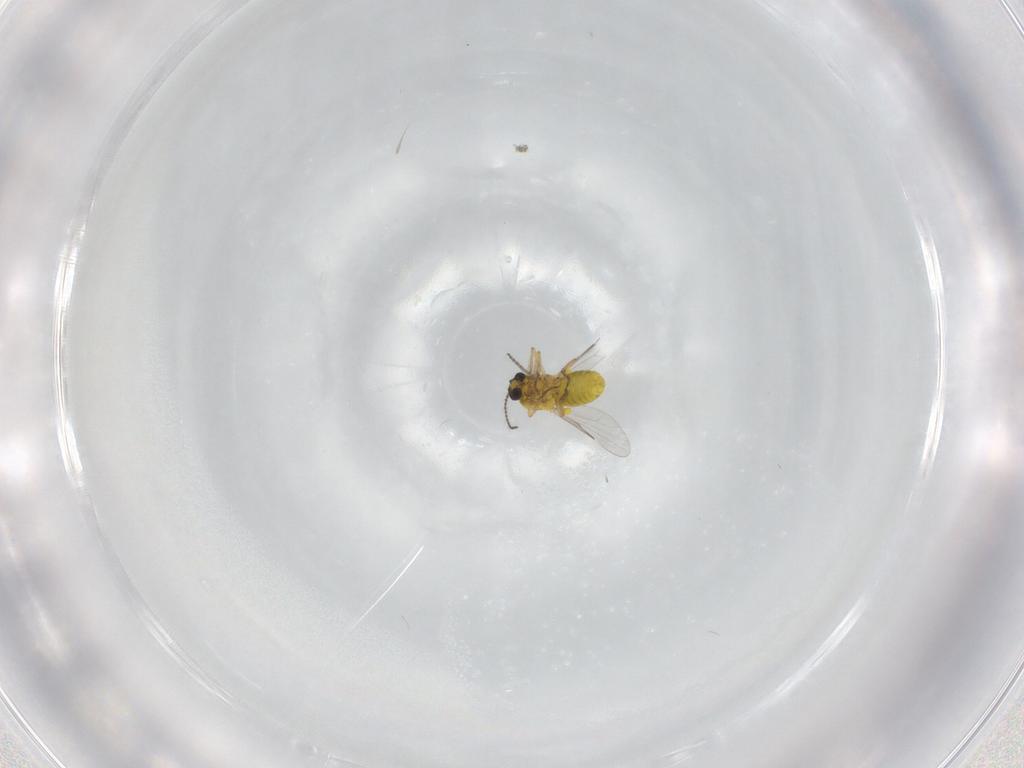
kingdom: Animalia
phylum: Arthropoda
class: Insecta
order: Diptera
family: Ceratopogonidae
